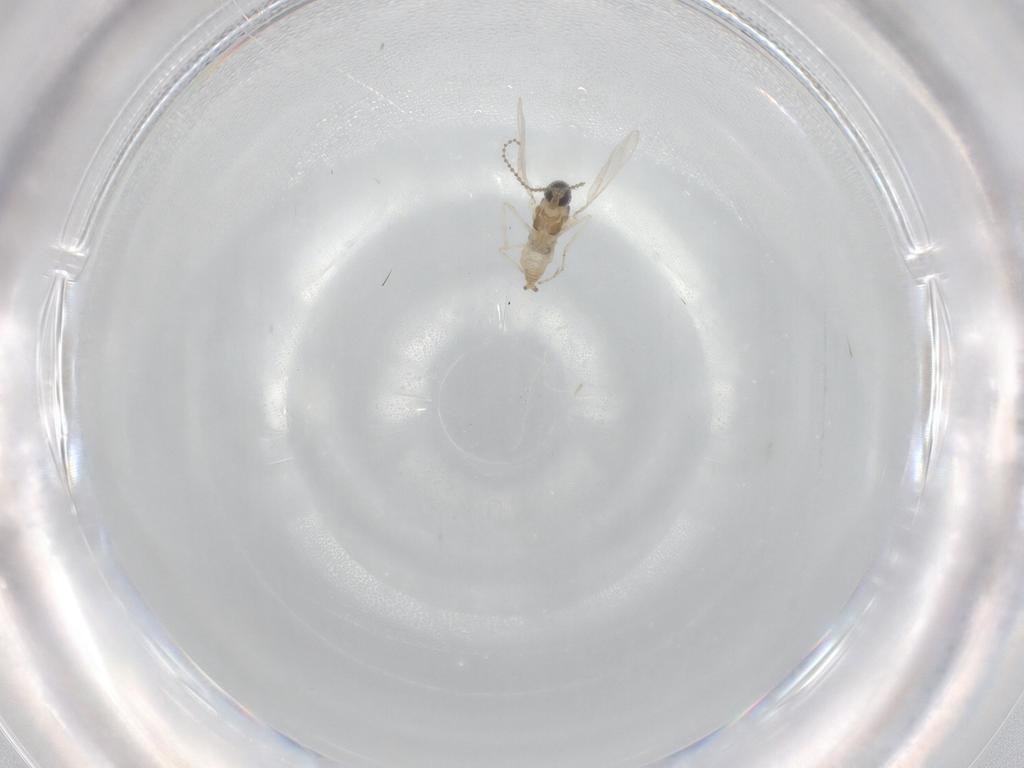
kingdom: Animalia
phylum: Arthropoda
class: Insecta
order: Diptera
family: Cecidomyiidae
